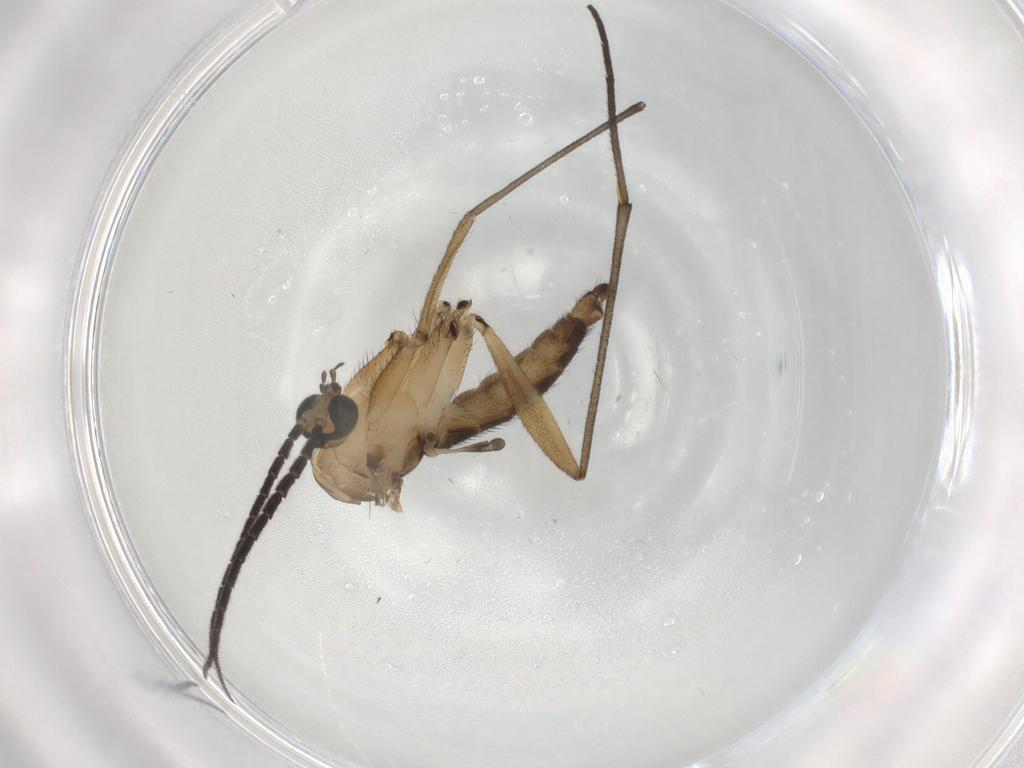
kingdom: Animalia
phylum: Arthropoda
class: Insecta
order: Diptera
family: Sciaridae
